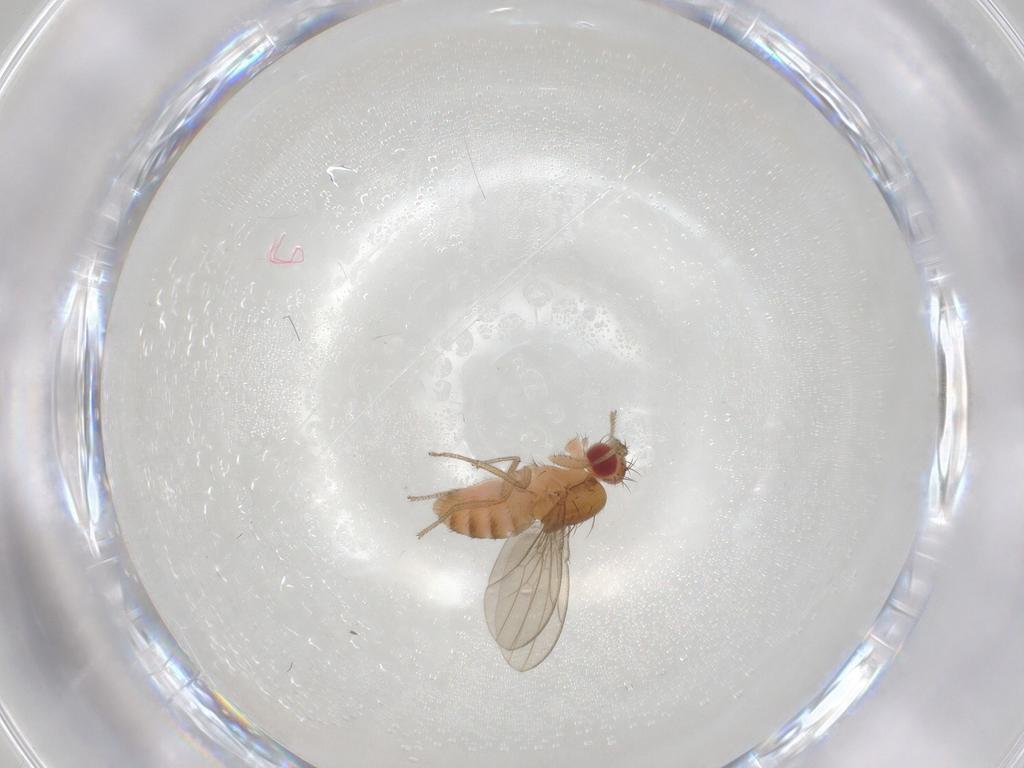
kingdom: Animalia
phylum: Arthropoda
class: Insecta
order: Diptera
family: Drosophilidae
